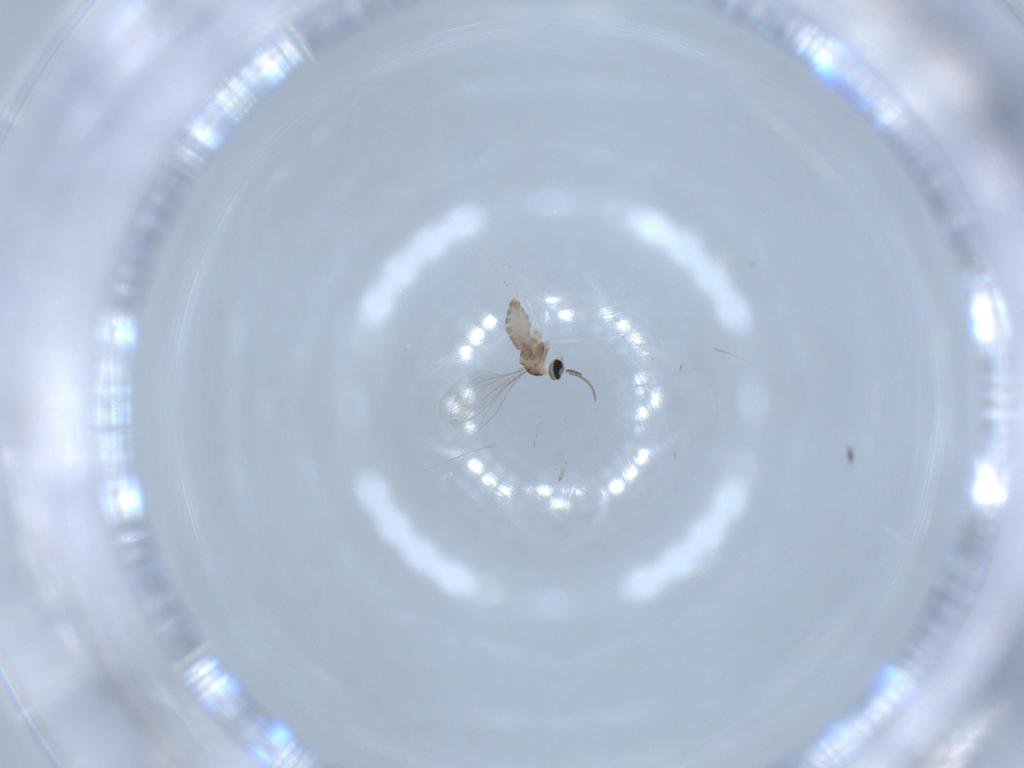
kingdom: Animalia
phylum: Arthropoda
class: Insecta
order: Diptera
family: Cecidomyiidae
